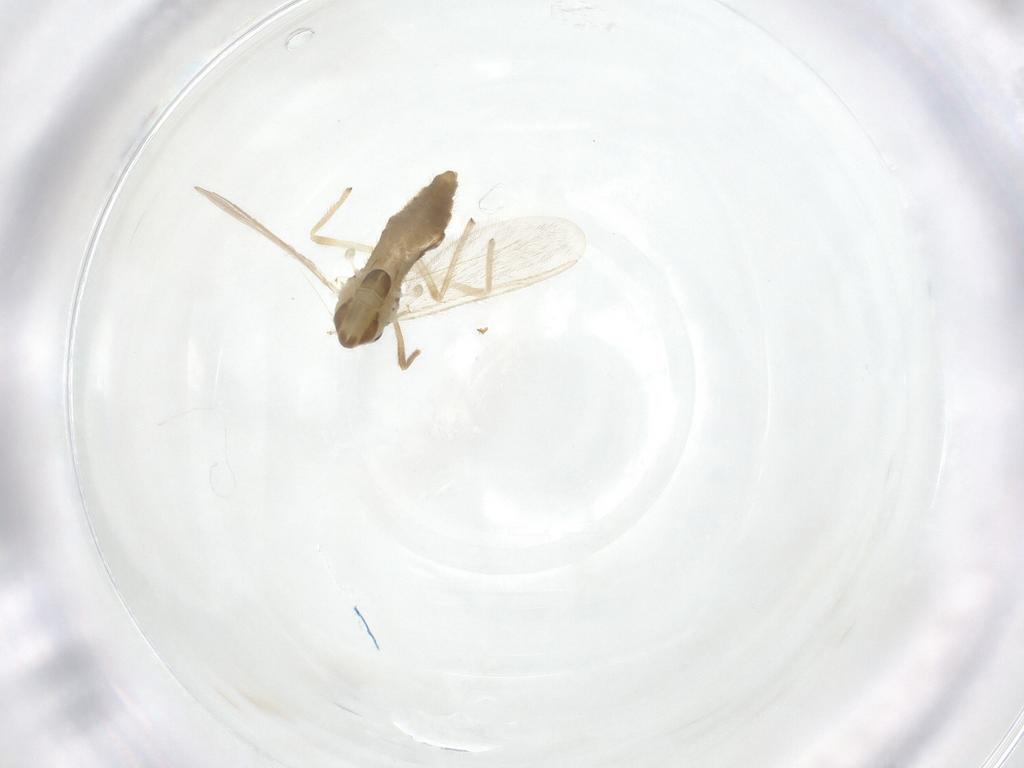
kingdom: Animalia
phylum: Arthropoda
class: Insecta
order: Diptera
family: Chironomidae
